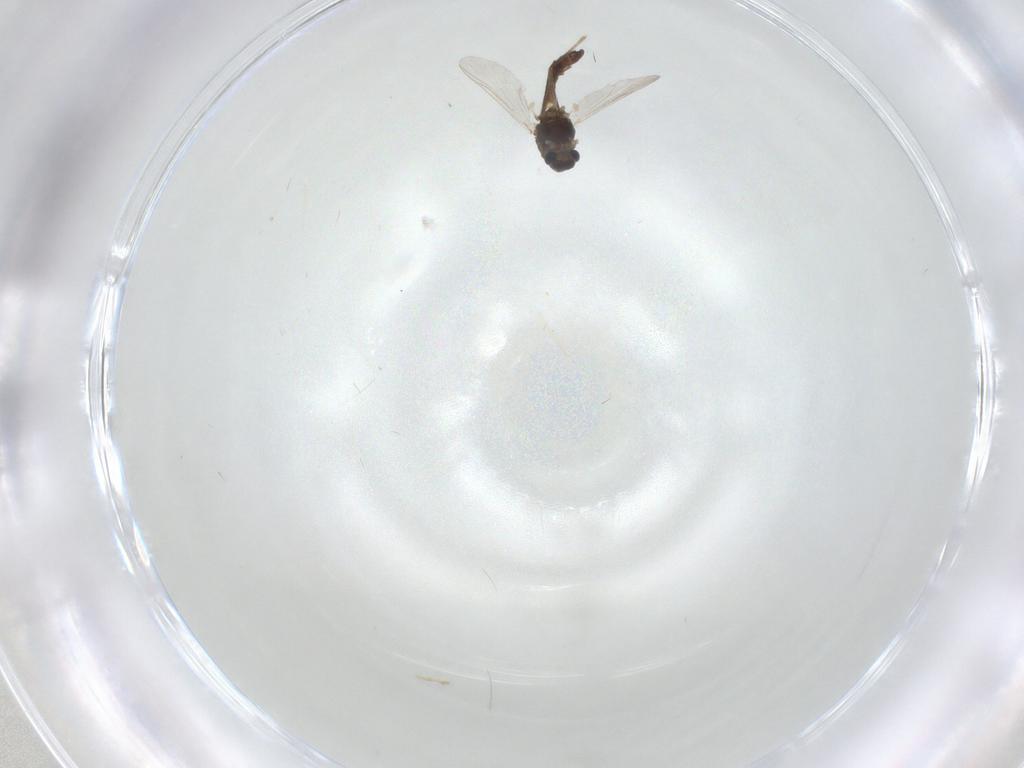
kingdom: Animalia
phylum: Arthropoda
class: Insecta
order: Diptera
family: Chironomidae
